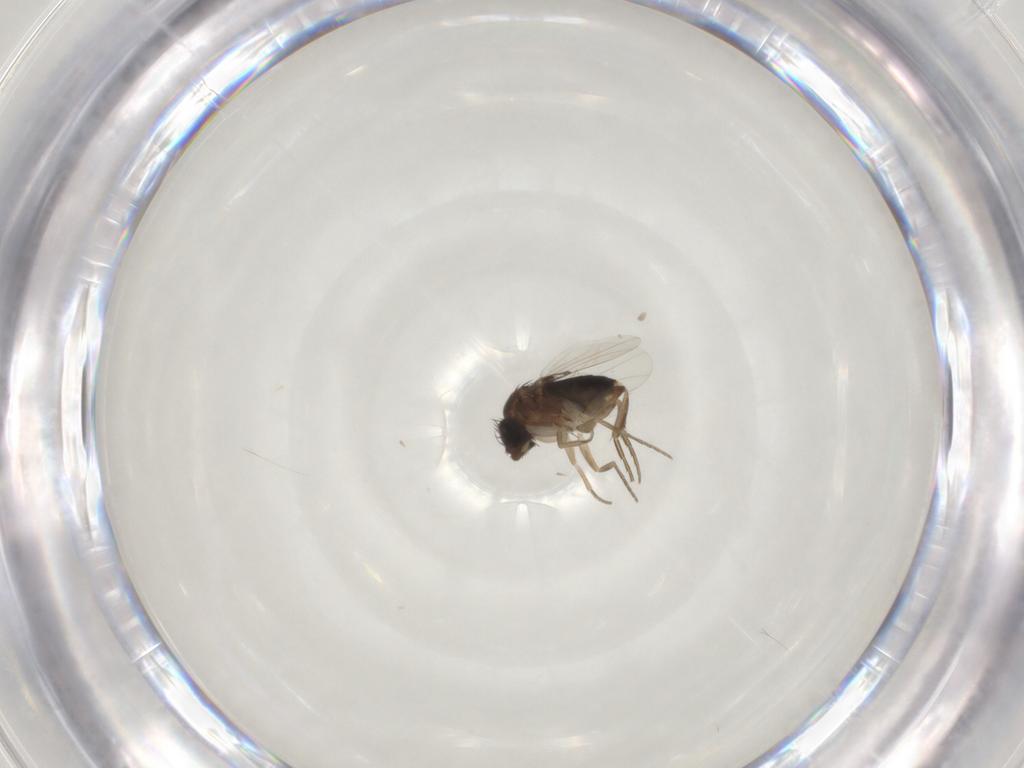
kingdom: Animalia
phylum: Arthropoda
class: Insecta
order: Diptera
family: Phoridae
